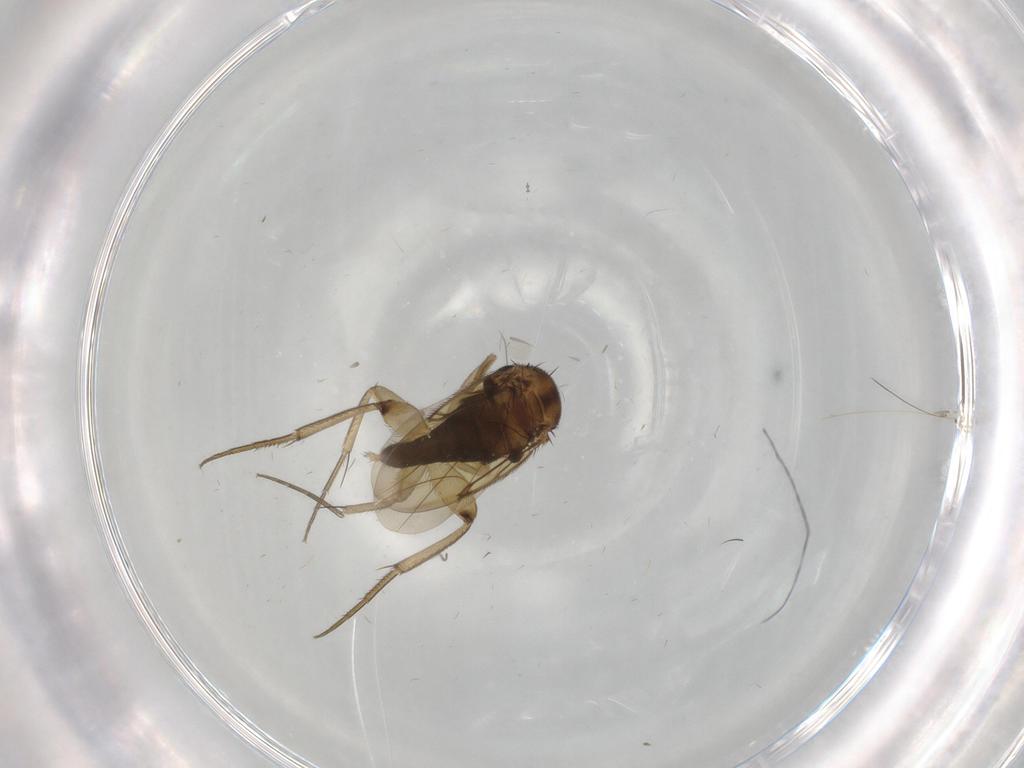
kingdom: Animalia
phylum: Arthropoda
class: Insecta
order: Diptera
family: Phoridae
